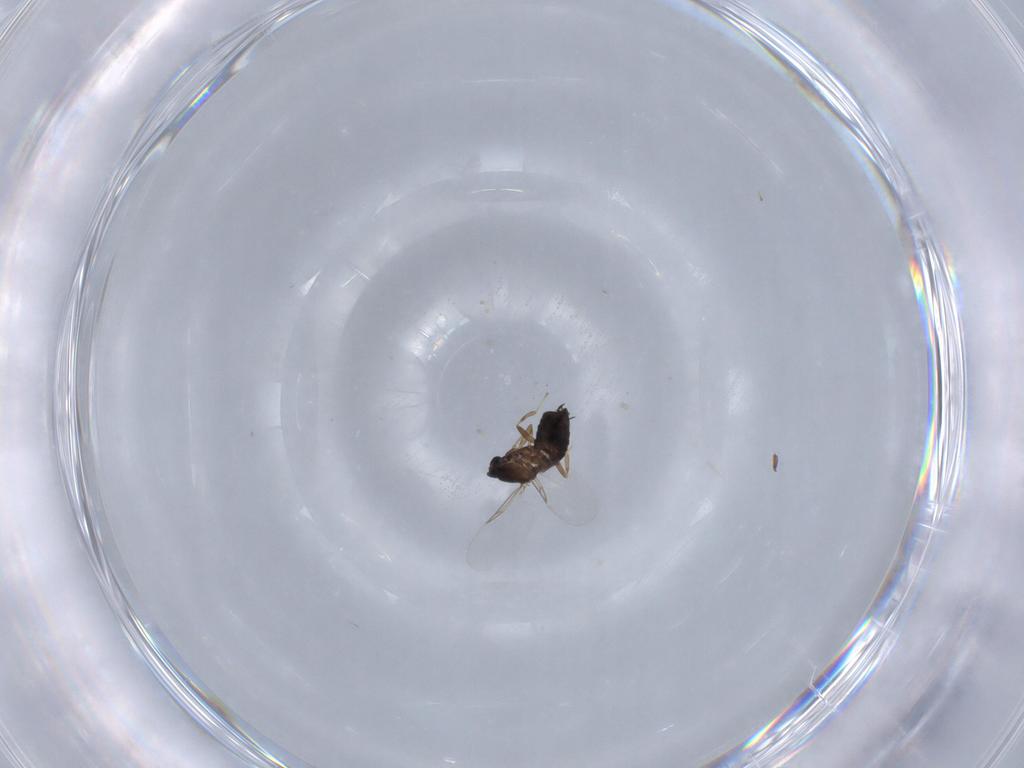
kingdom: Animalia
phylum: Arthropoda
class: Insecta
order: Diptera
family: Scatopsidae
